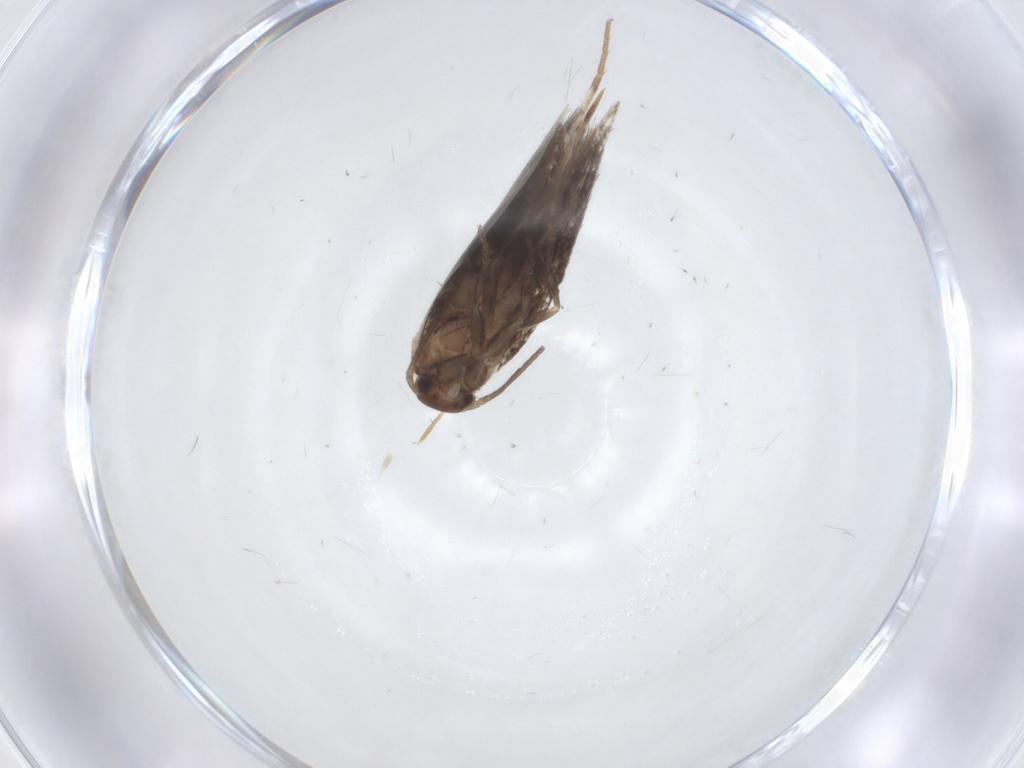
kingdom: Animalia
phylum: Arthropoda
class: Insecta
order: Lepidoptera
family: Elachistidae
